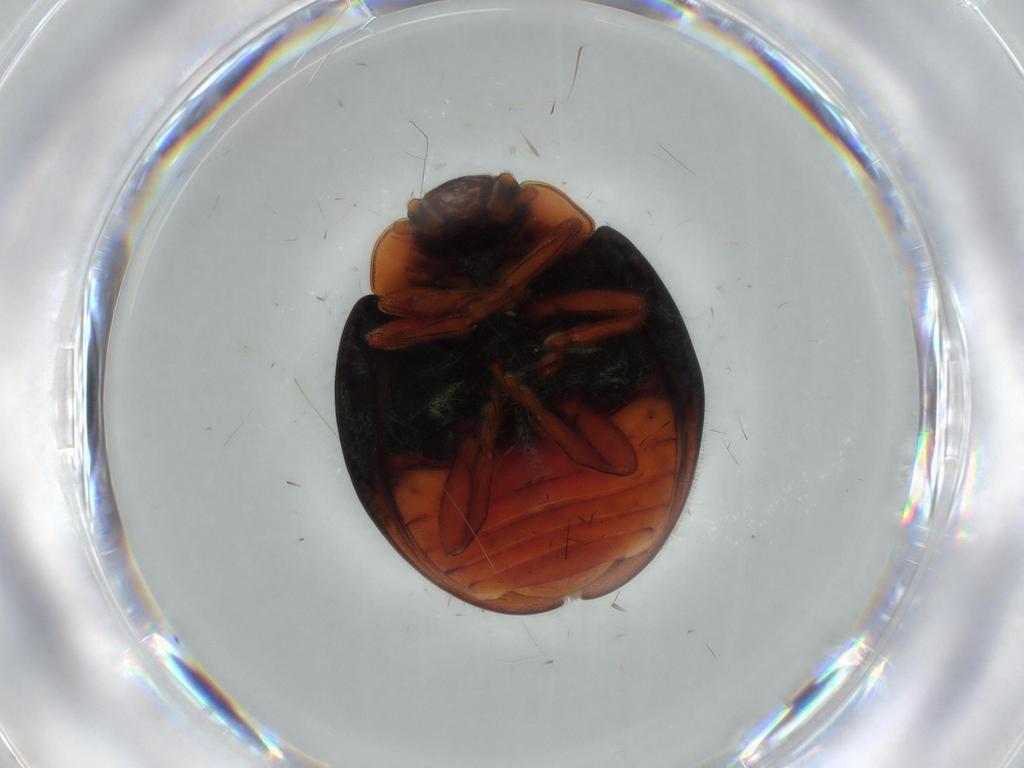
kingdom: Animalia
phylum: Arthropoda
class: Insecta
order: Coleoptera
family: Coccinellidae
